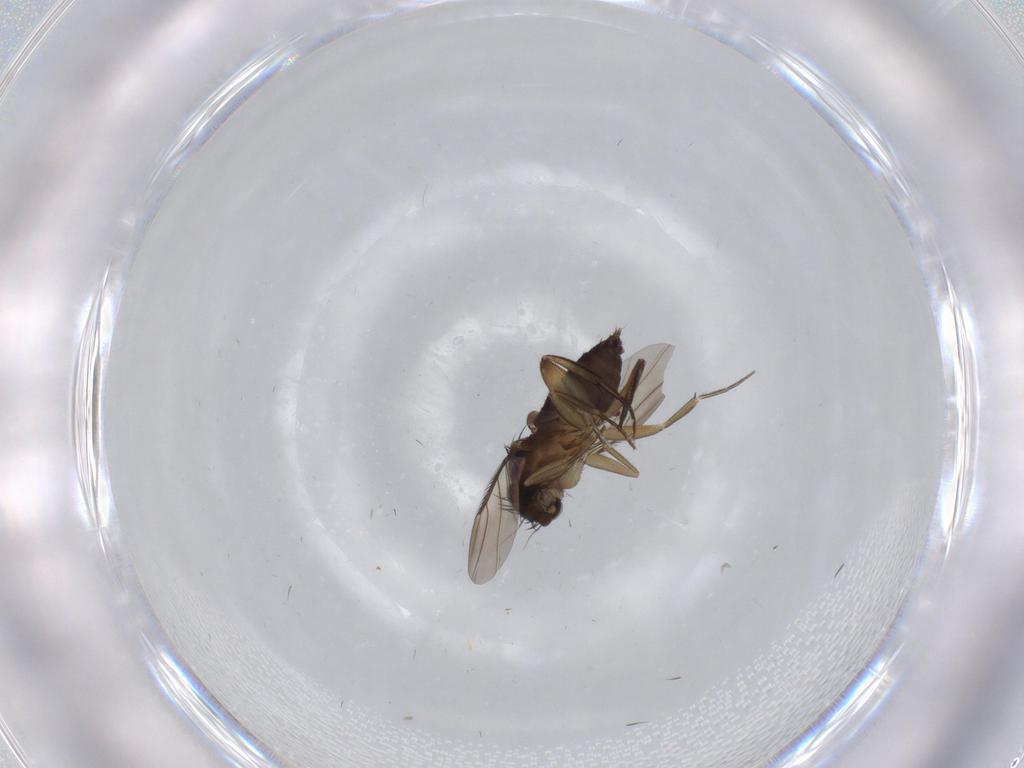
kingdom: Animalia
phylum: Arthropoda
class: Insecta
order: Diptera
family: Phoridae
